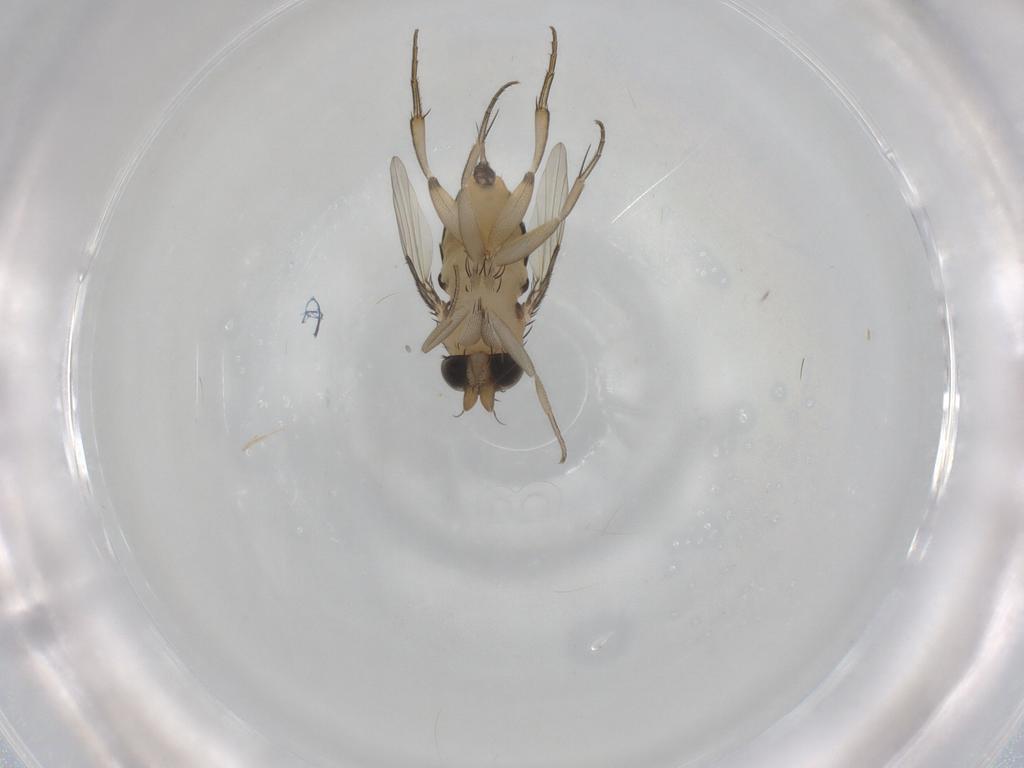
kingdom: Animalia
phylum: Arthropoda
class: Insecta
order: Diptera
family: Phoridae
